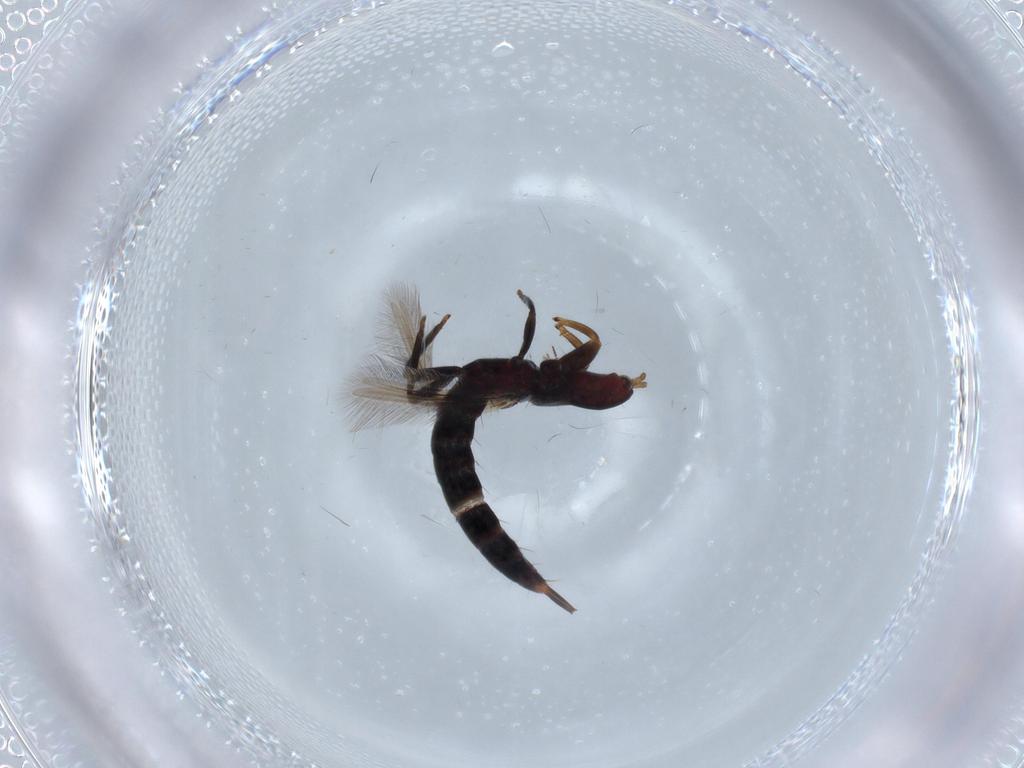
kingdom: Animalia
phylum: Arthropoda
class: Insecta
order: Thysanoptera
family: Phlaeothripidae
